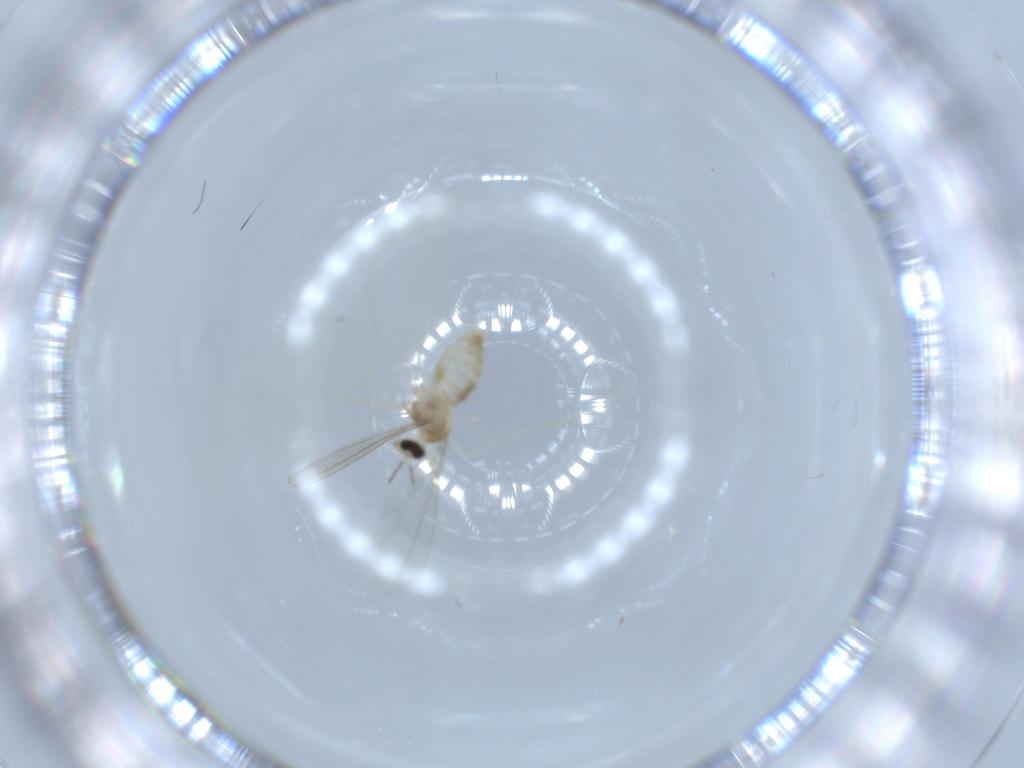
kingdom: Animalia
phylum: Arthropoda
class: Insecta
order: Diptera
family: Cecidomyiidae
